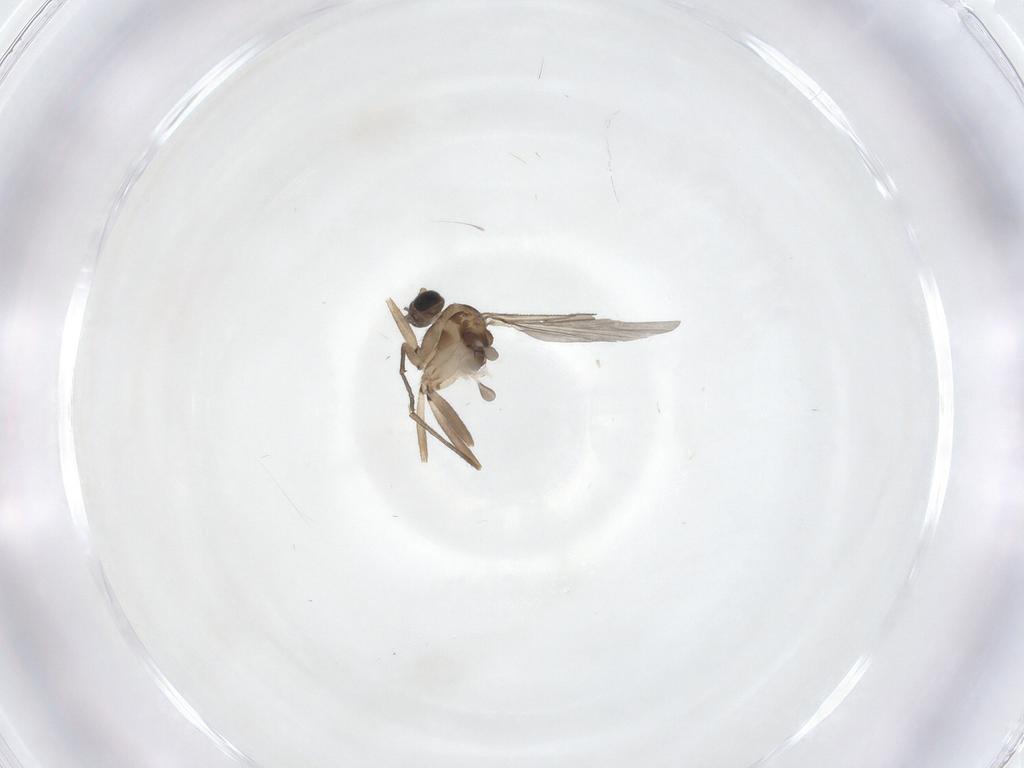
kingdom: Animalia
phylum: Arthropoda
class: Insecta
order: Diptera
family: Sciaridae
